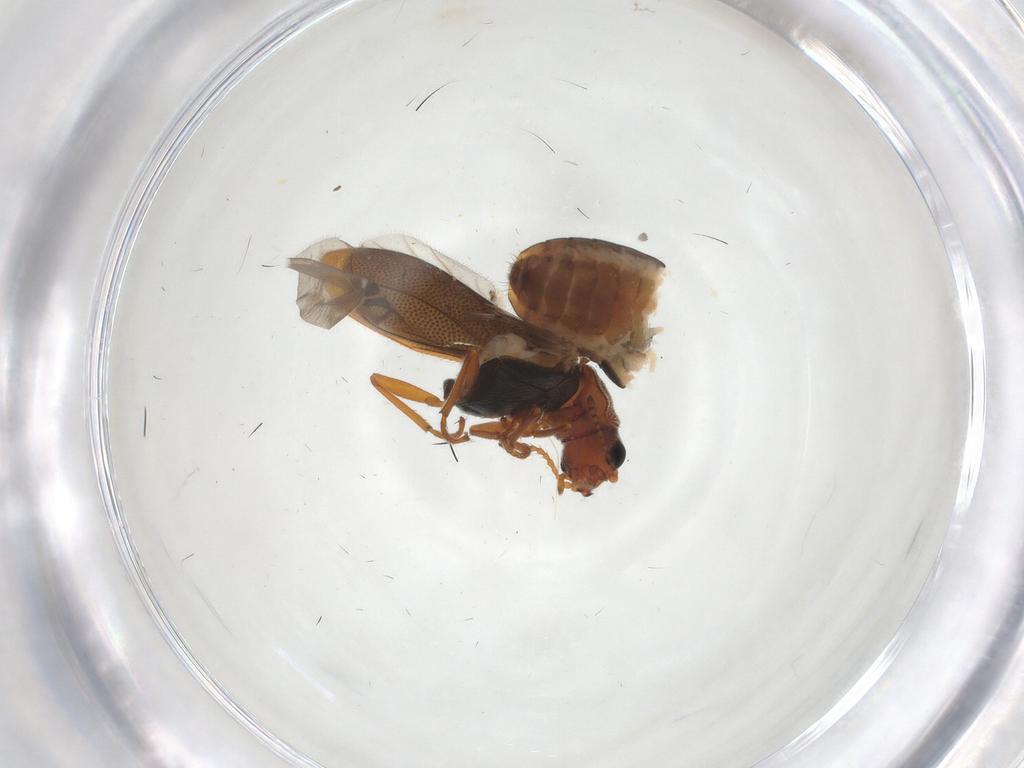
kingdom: Animalia
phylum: Arthropoda
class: Insecta
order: Coleoptera
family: Melyridae
